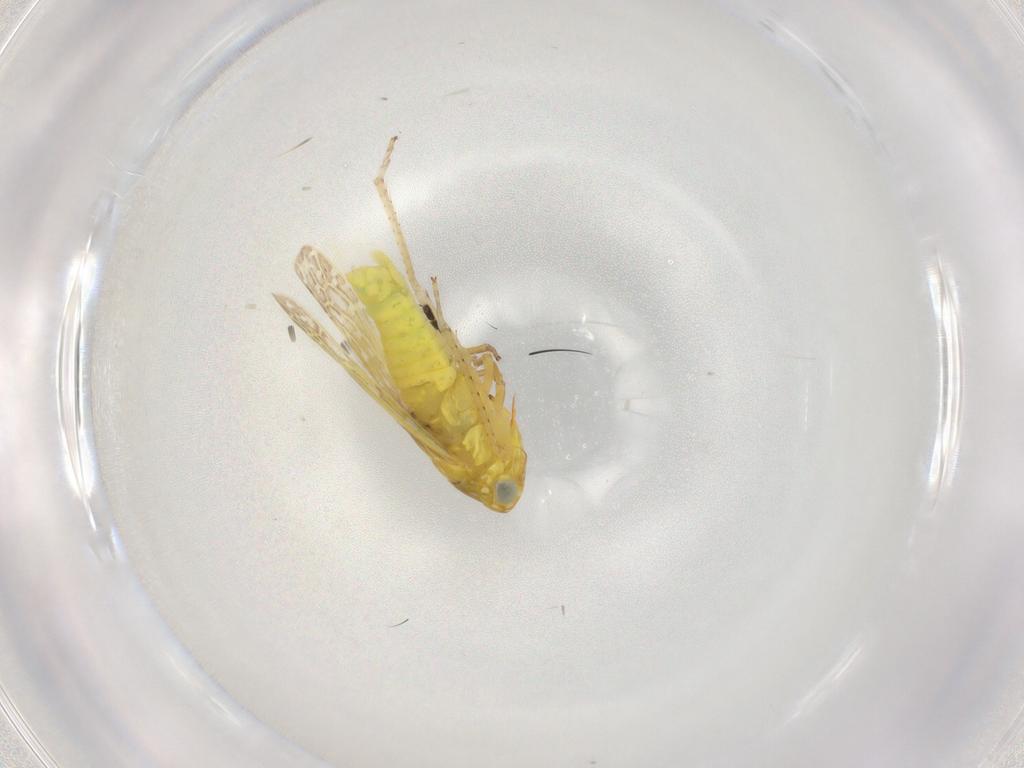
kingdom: Animalia
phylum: Arthropoda
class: Insecta
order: Hemiptera
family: Cicadellidae
